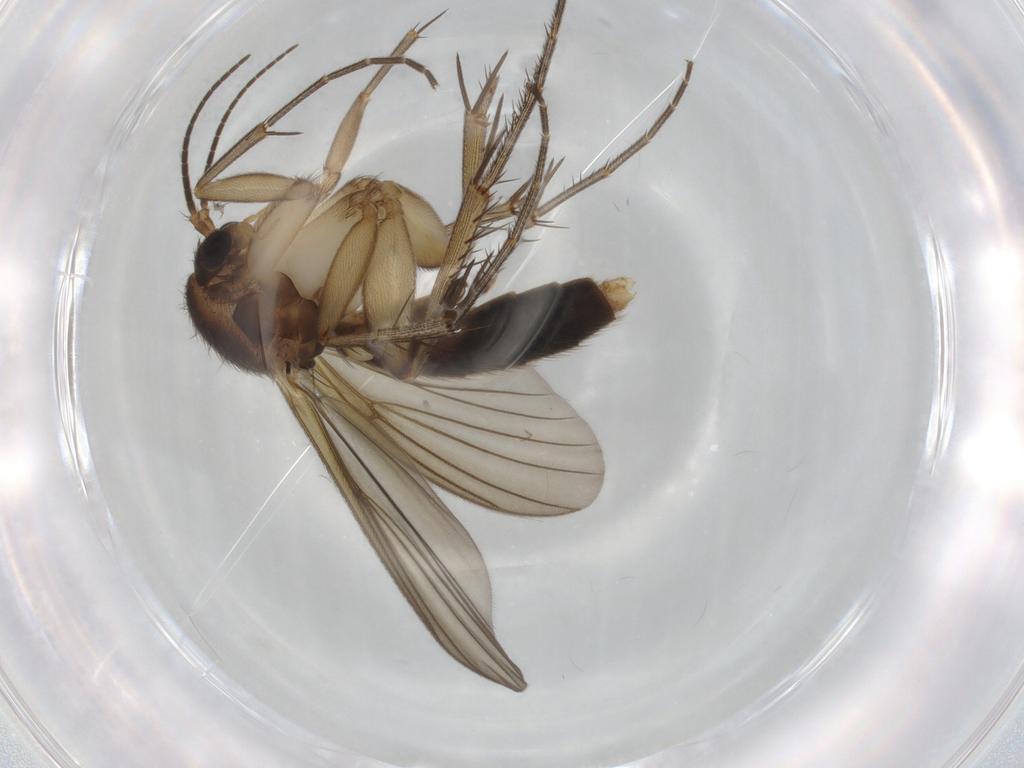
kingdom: Animalia
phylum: Arthropoda
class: Insecta
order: Diptera
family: Mycetophilidae
